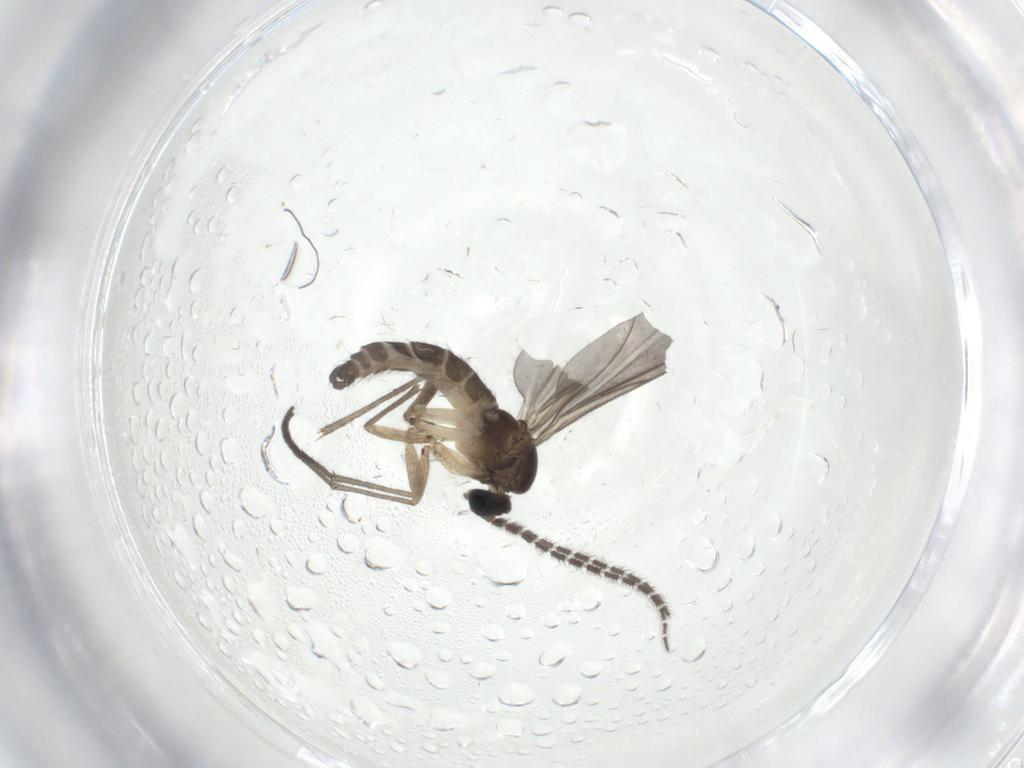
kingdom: Animalia
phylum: Arthropoda
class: Insecta
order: Diptera
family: Sciaridae
